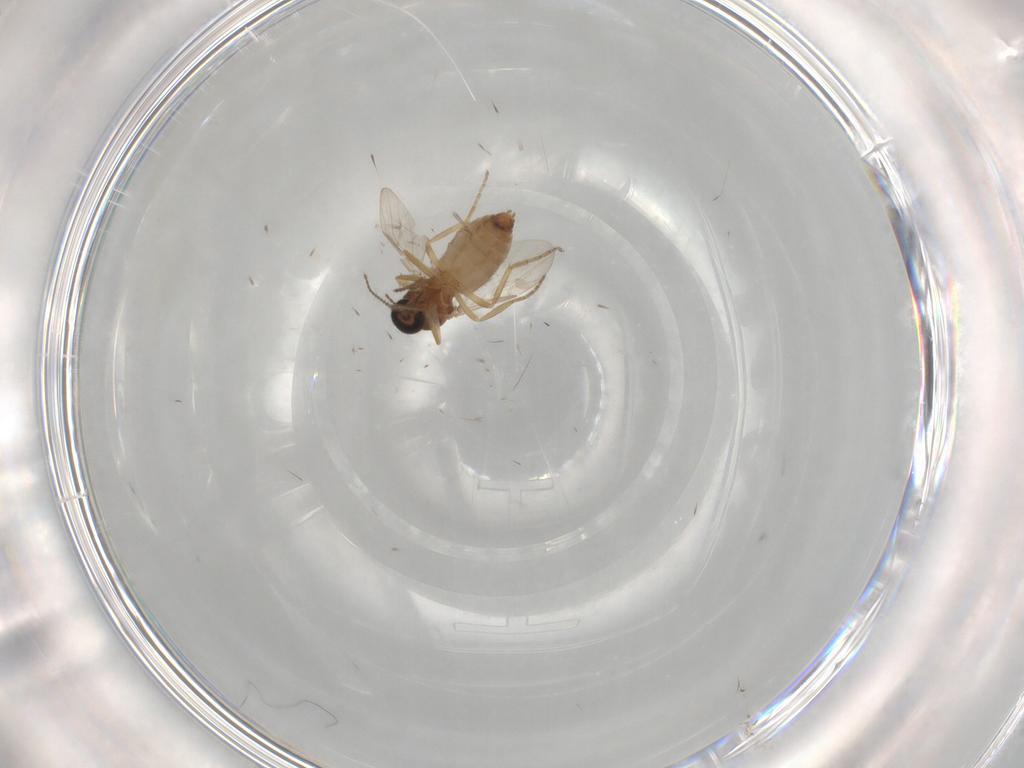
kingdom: Animalia
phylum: Arthropoda
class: Insecta
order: Diptera
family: Ceratopogonidae
